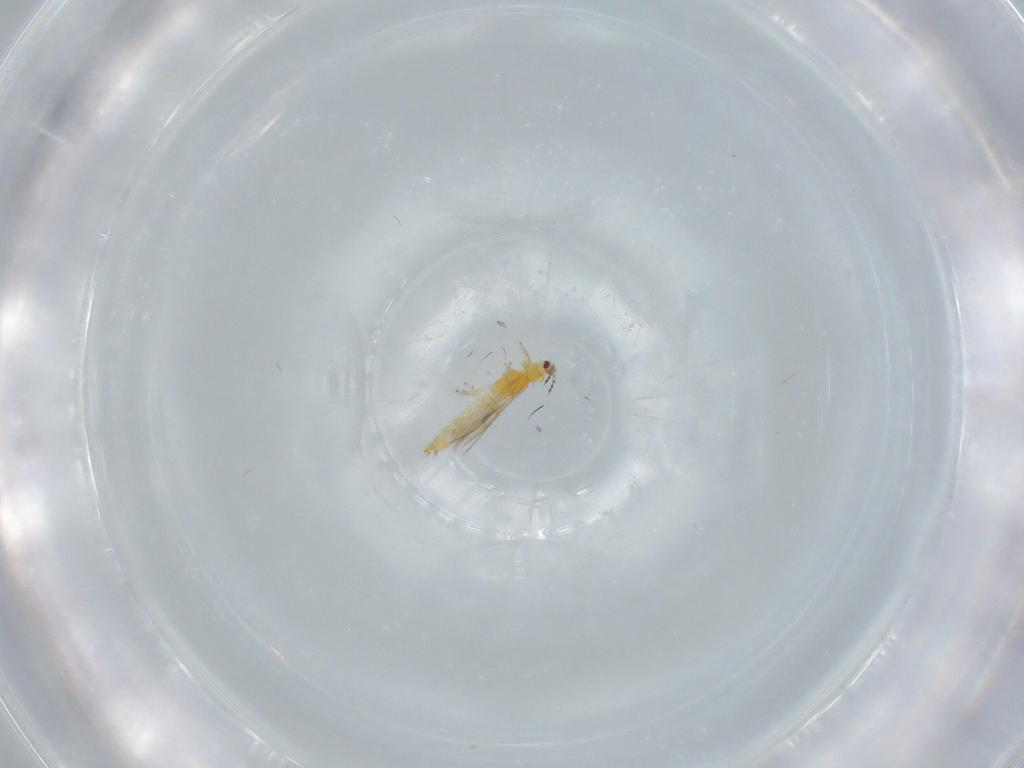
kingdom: Animalia
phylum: Arthropoda
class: Insecta
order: Thysanoptera
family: Thripidae
